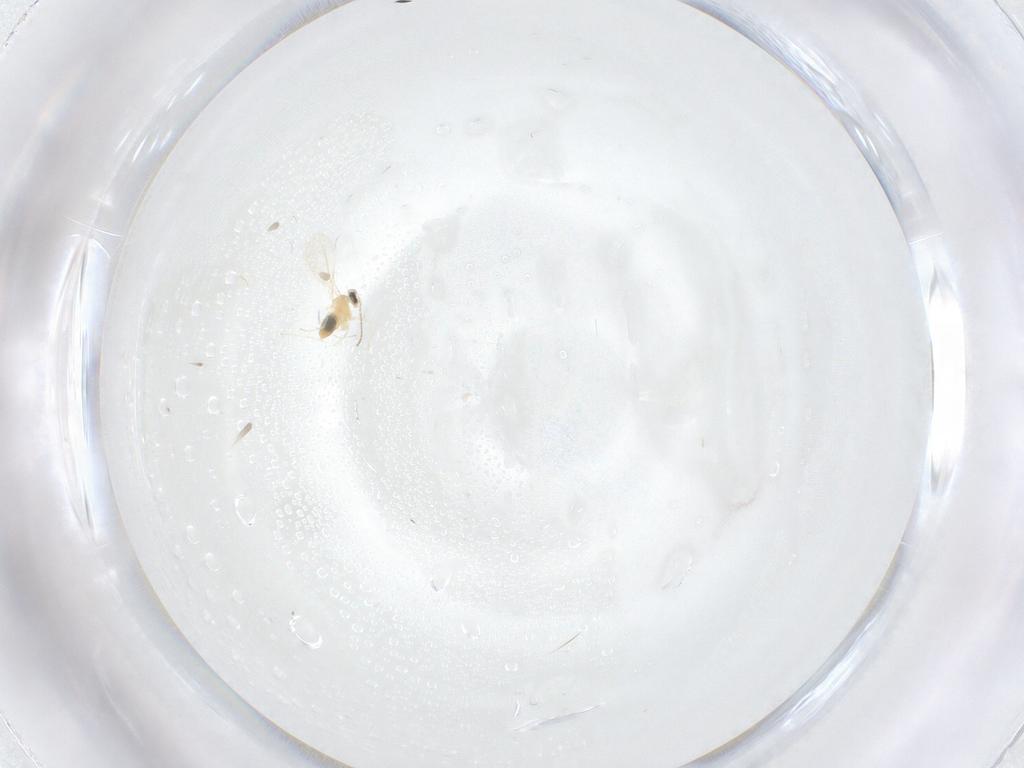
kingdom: Animalia
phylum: Arthropoda
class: Insecta
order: Diptera
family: Cecidomyiidae
